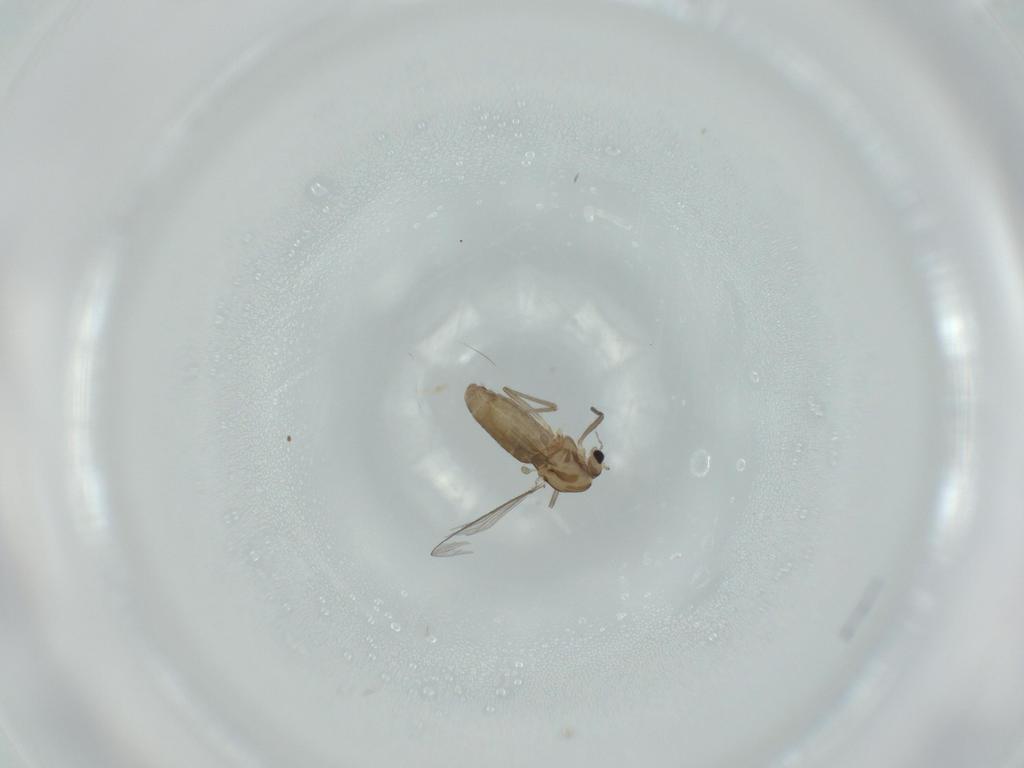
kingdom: Animalia
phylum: Arthropoda
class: Insecta
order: Diptera
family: Chironomidae
